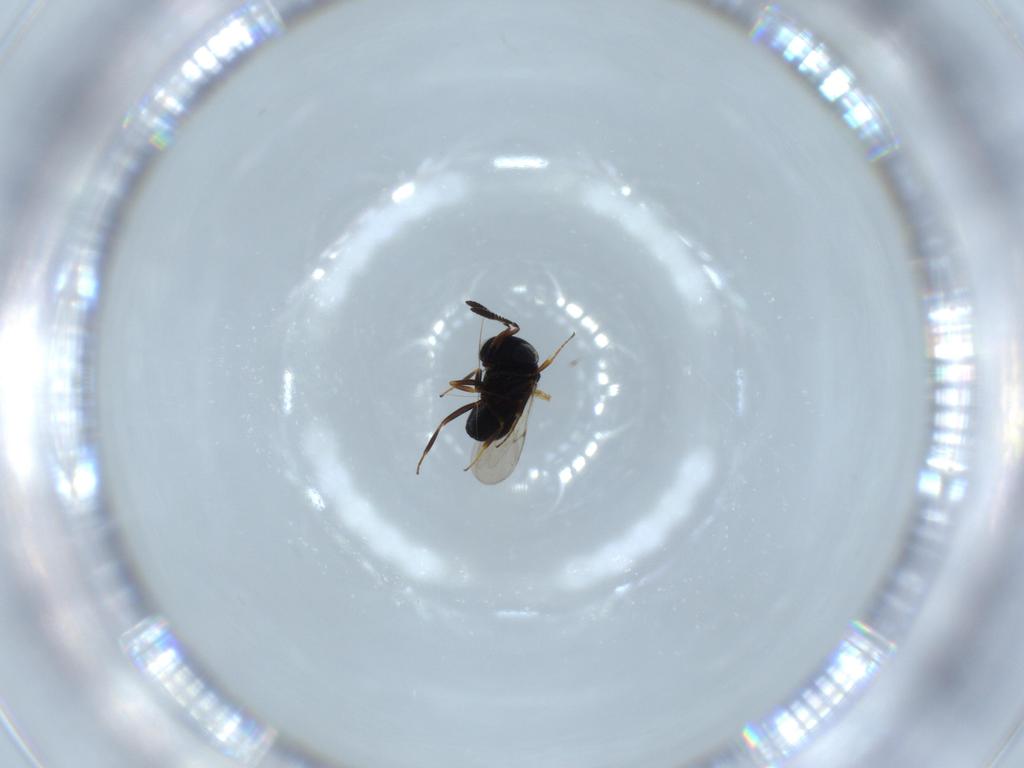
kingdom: Animalia
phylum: Arthropoda
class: Insecta
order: Hymenoptera
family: Scelionidae
